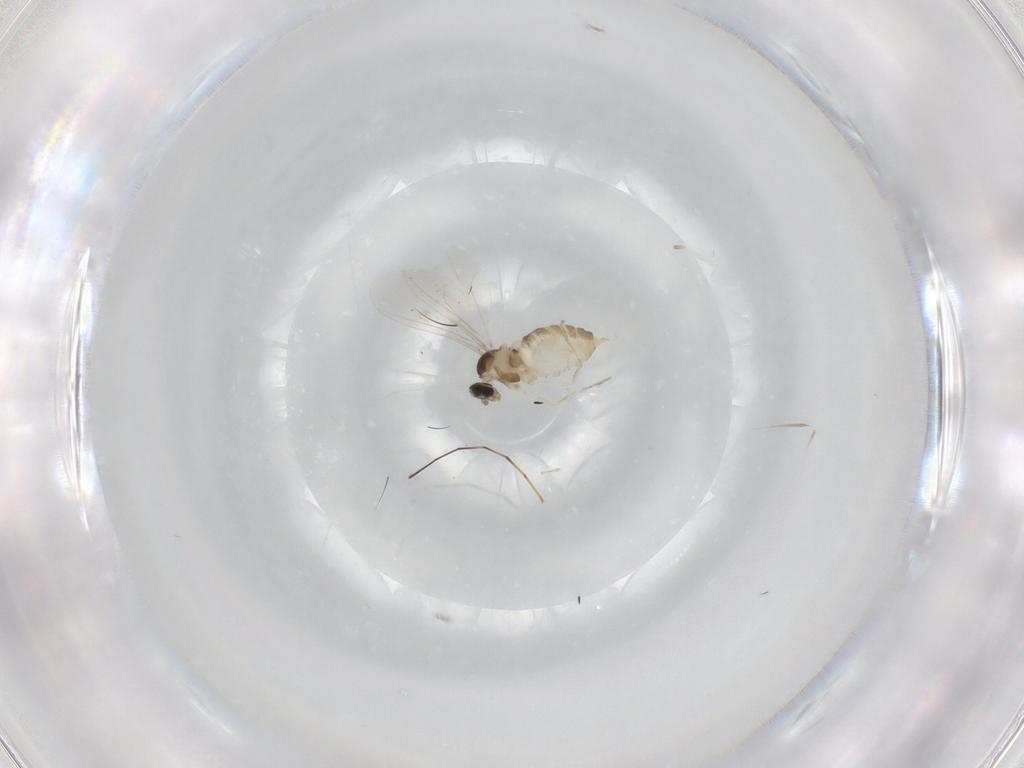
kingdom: Animalia
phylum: Arthropoda
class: Insecta
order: Diptera
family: Cecidomyiidae
